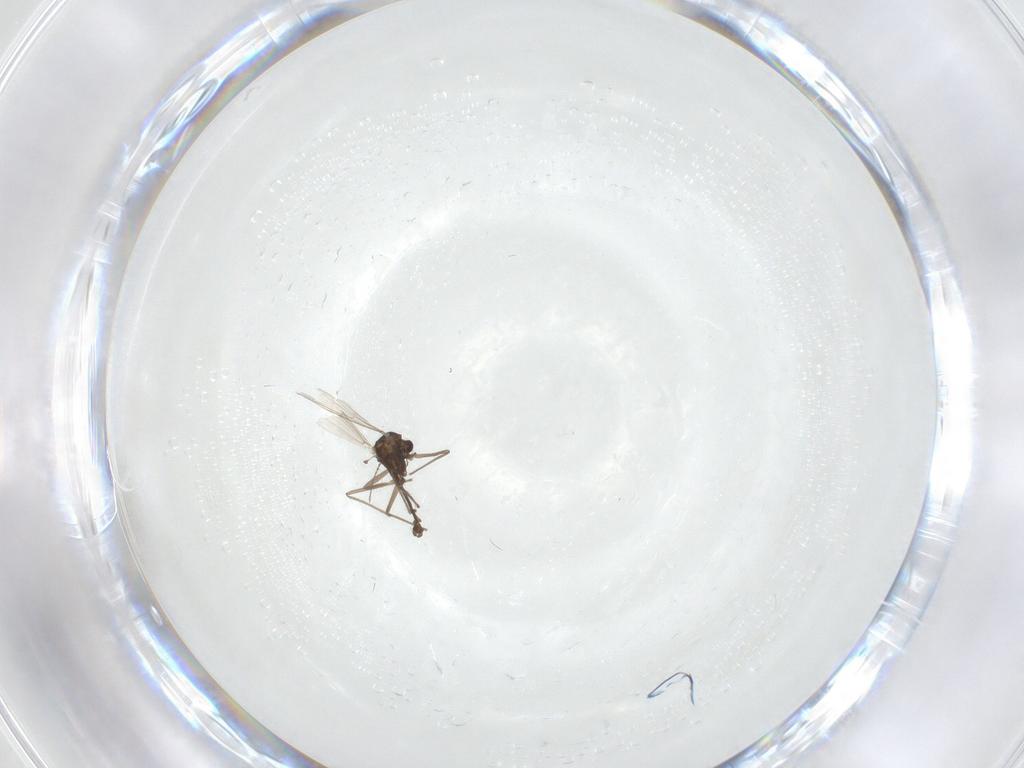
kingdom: Animalia
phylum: Arthropoda
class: Insecta
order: Diptera
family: Chironomidae
